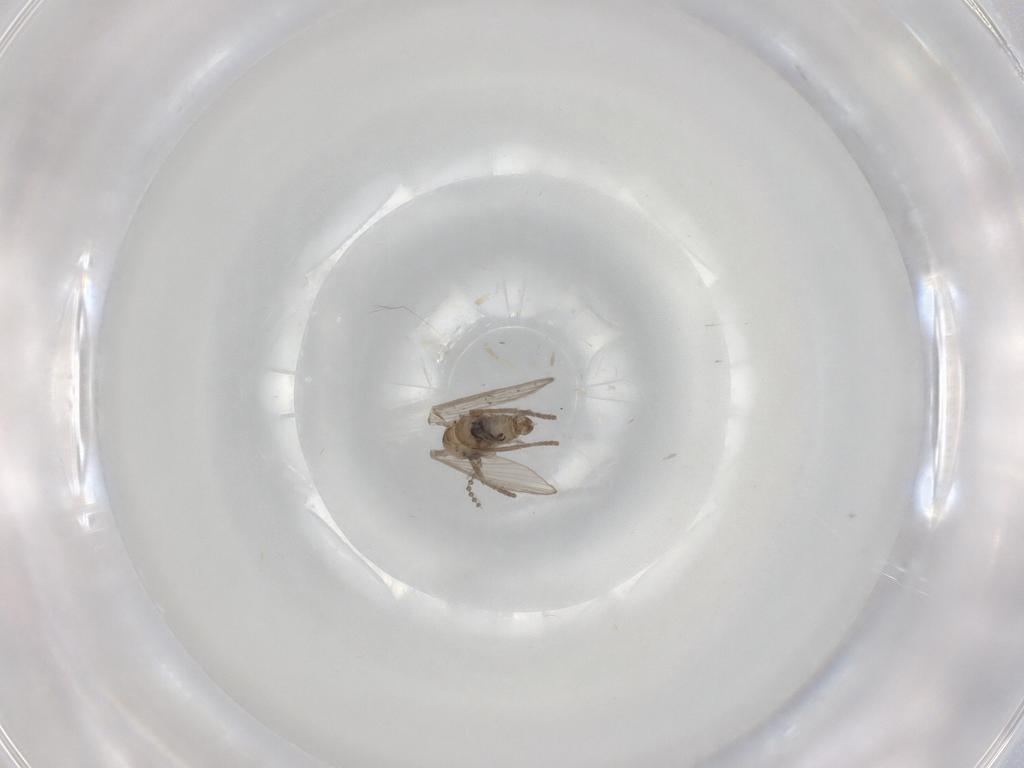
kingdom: Animalia
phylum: Arthropoda
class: Insecta
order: Diptera
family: Psychodidae
